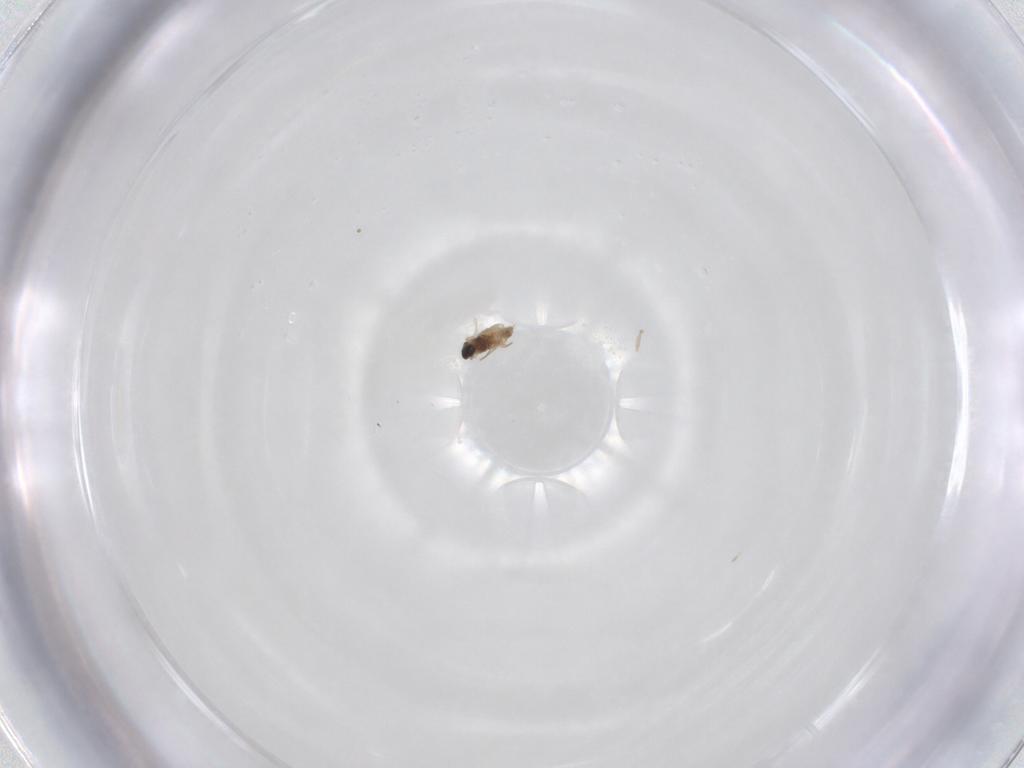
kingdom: Animalia
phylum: Arthropoda
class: Insecta
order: Diptera
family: Cecidomyiidae
